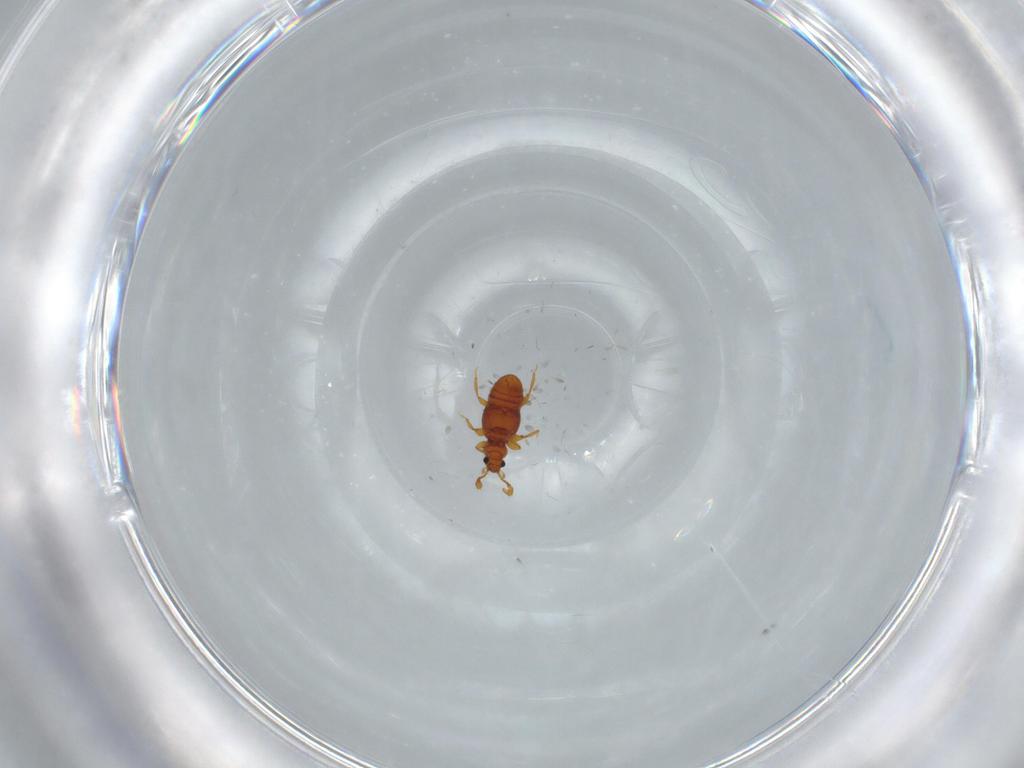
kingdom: Animalia
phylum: Arthropoda
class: Insecta
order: Coleoptera
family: Staphylinidae
